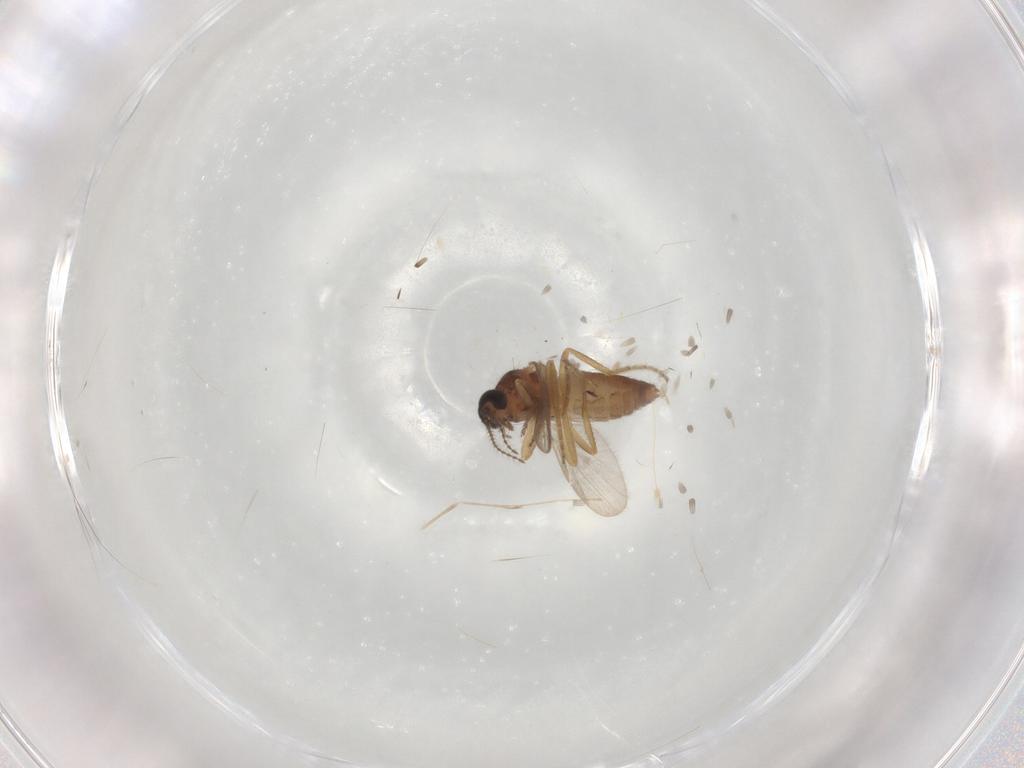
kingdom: Animalia
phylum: Arthropoda
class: Insecta
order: Diptera
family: Ceratopogonidae
